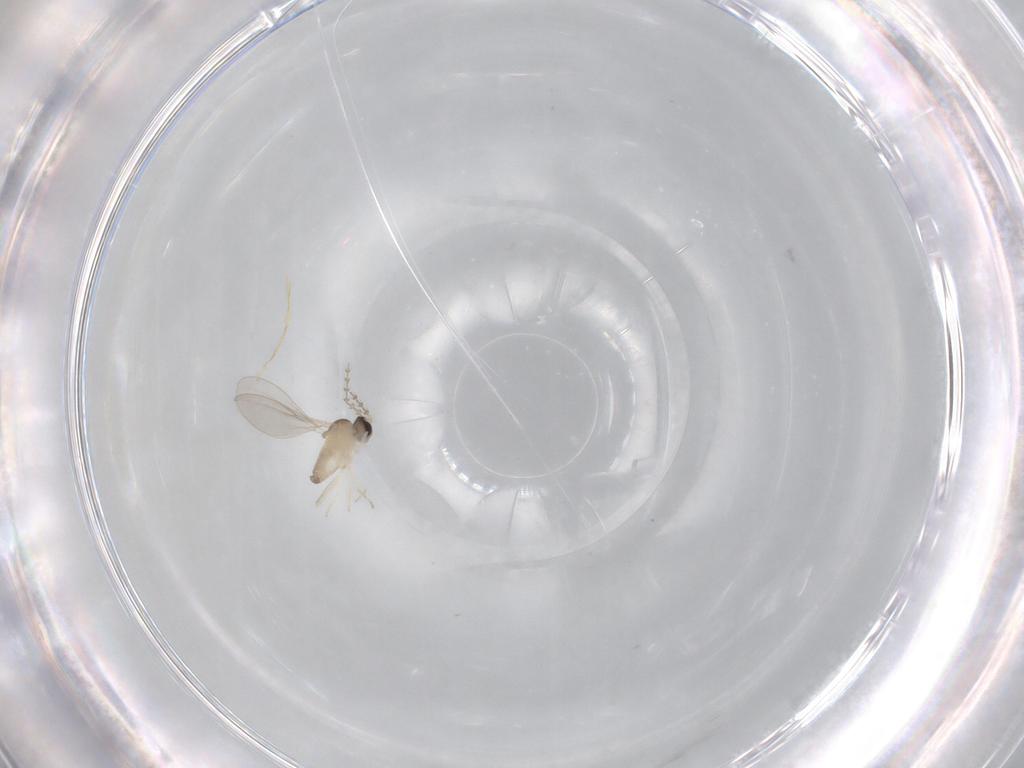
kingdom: Animalia
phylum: Arthropoda
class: Insecta
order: Diptera
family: Cecidomyiidae
